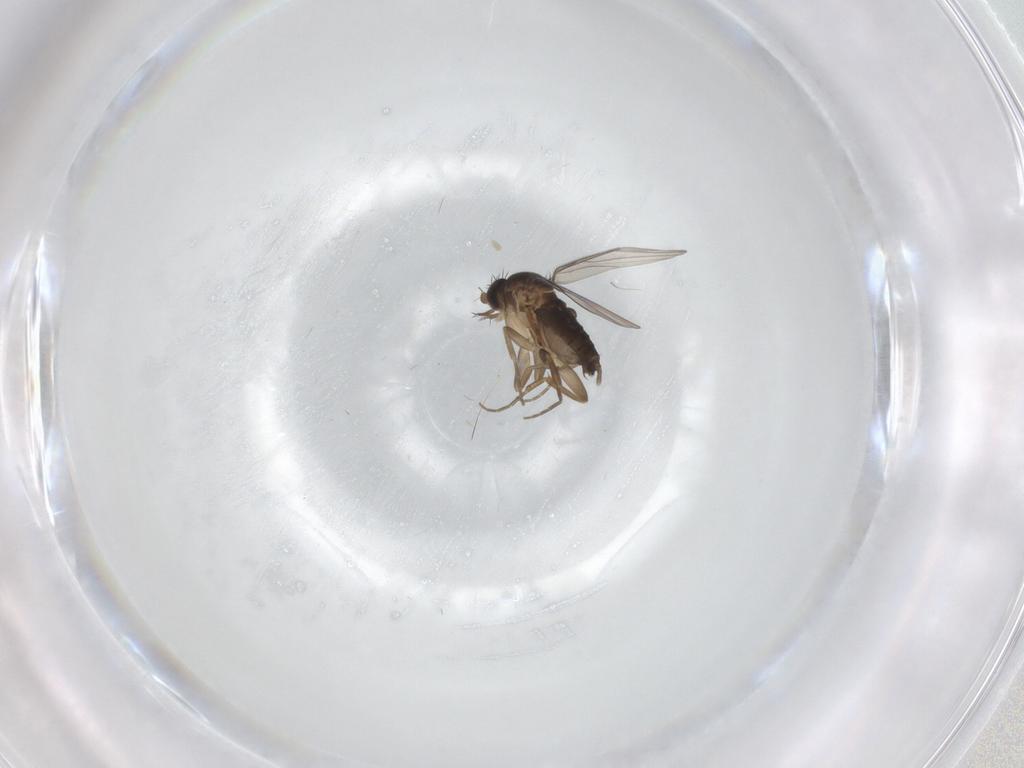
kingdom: Animalia
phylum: Arthropoda
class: Insecta
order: Diptera
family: Phoridae
